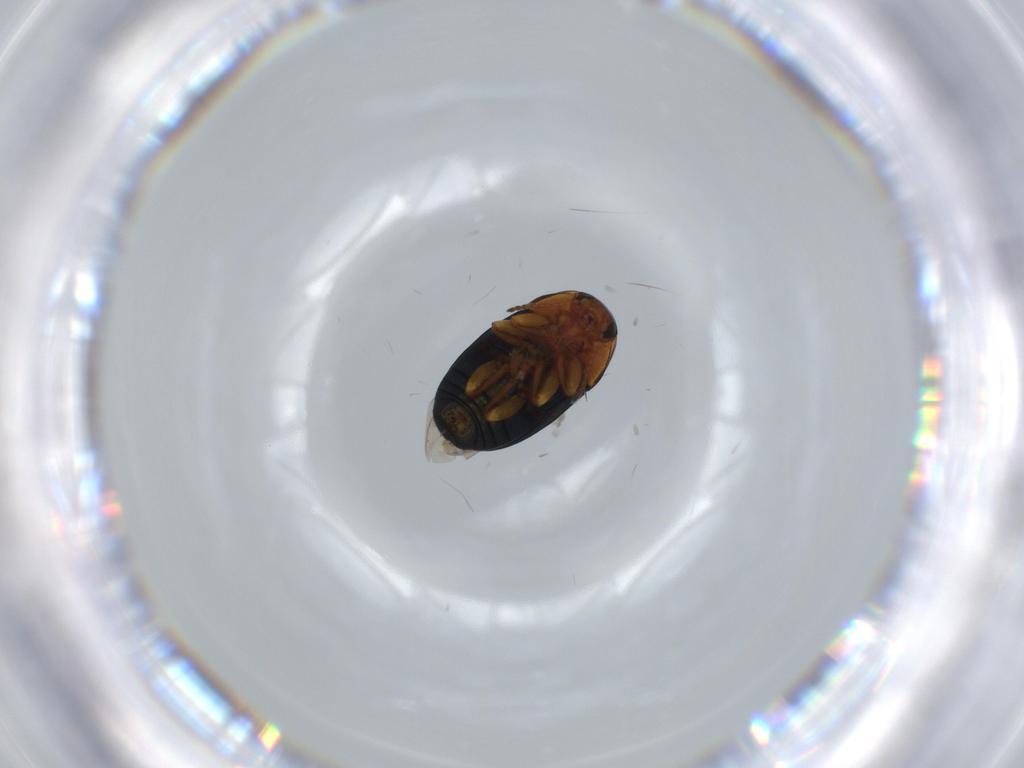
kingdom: Animalia
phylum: Arthropoda
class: Insecta
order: Coleoptera
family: Chrysomelidae
